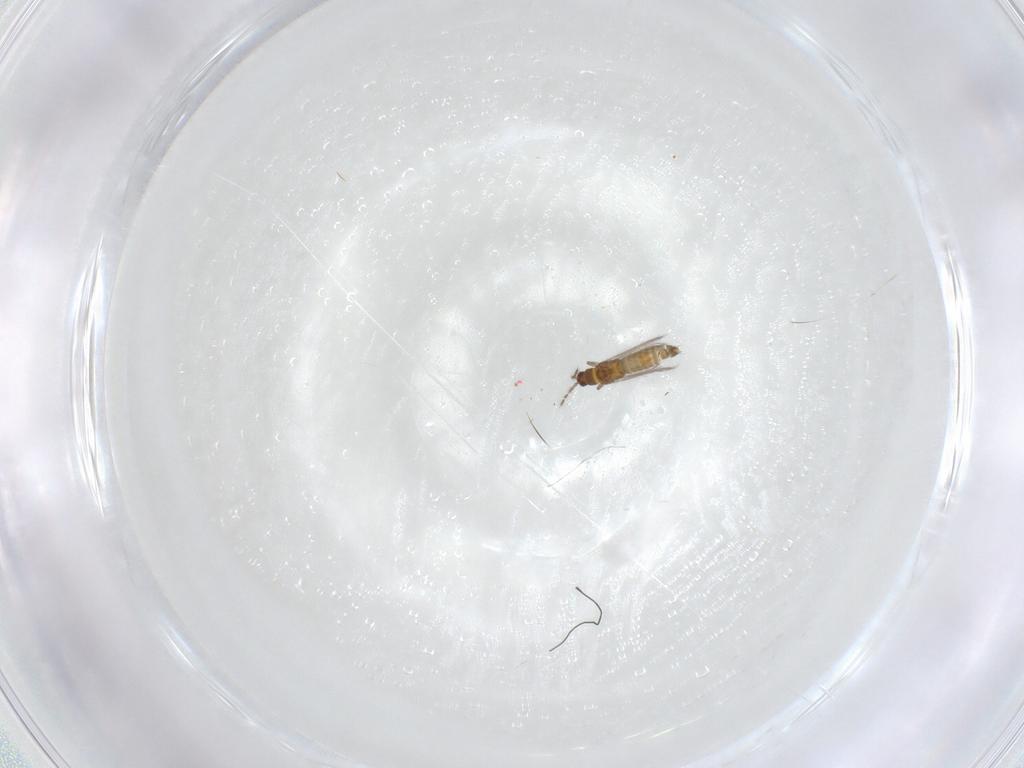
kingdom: Animalia
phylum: Arthropoda
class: Insecta
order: Thysanoptera
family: Thripidae
